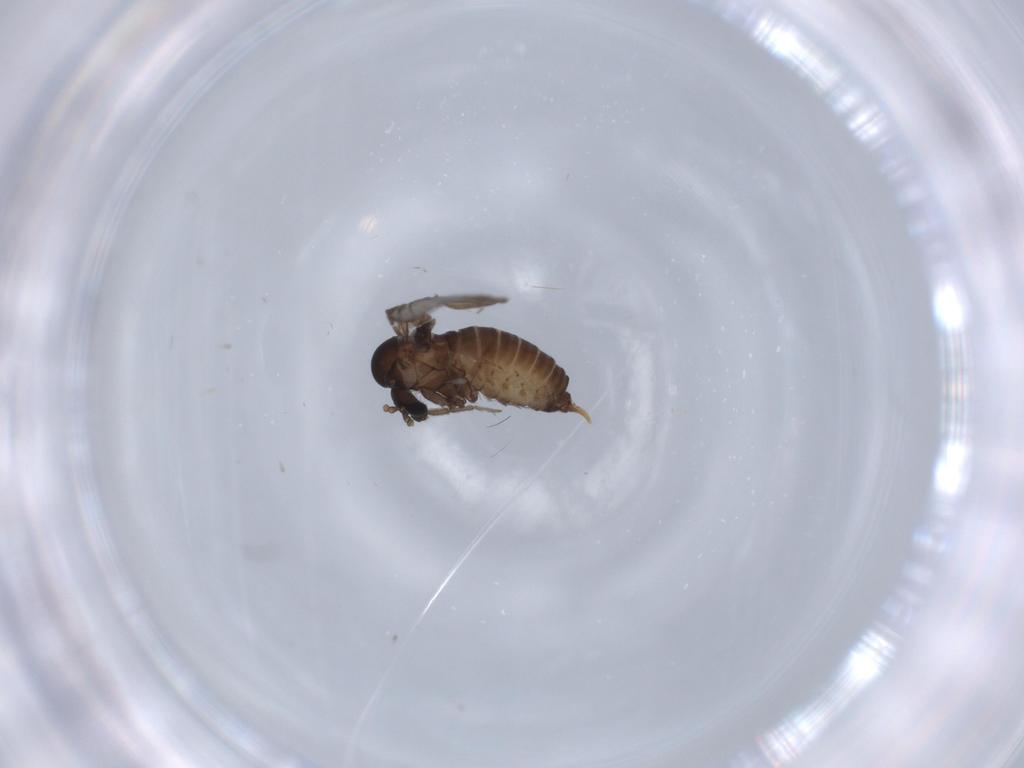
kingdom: Animalia
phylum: Arthropoda
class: Insecta
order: Diptera
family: Psychodidae
